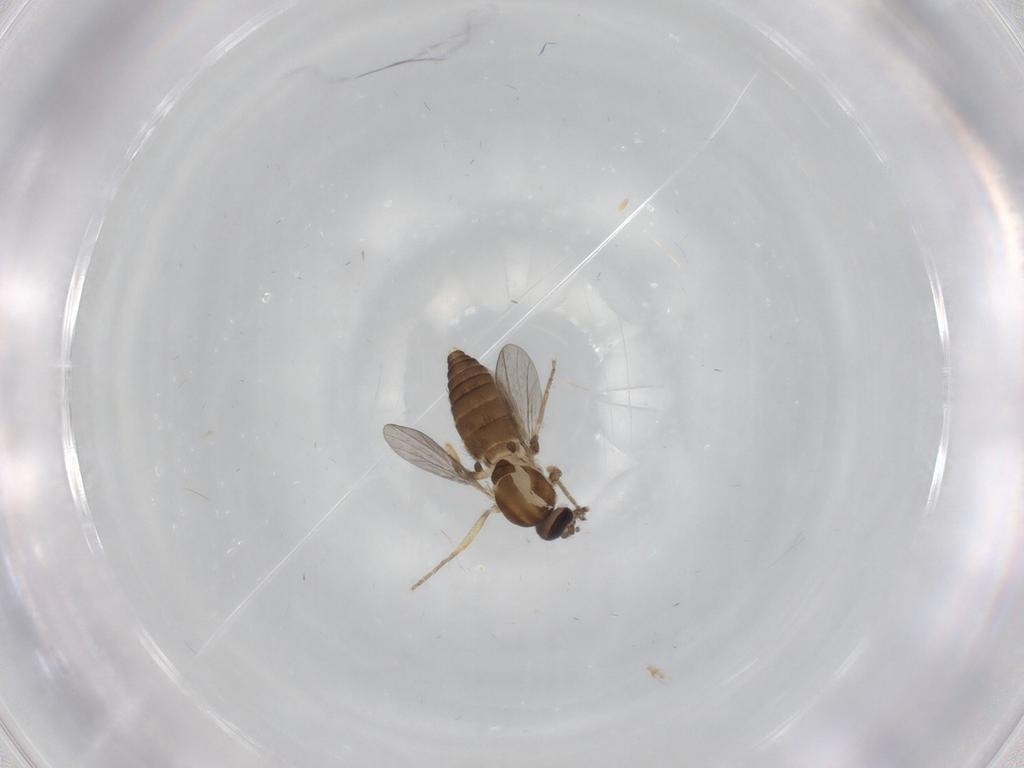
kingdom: Animalia
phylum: Arthropoda
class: Insecta
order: Diptera
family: Ceratopogonidae
